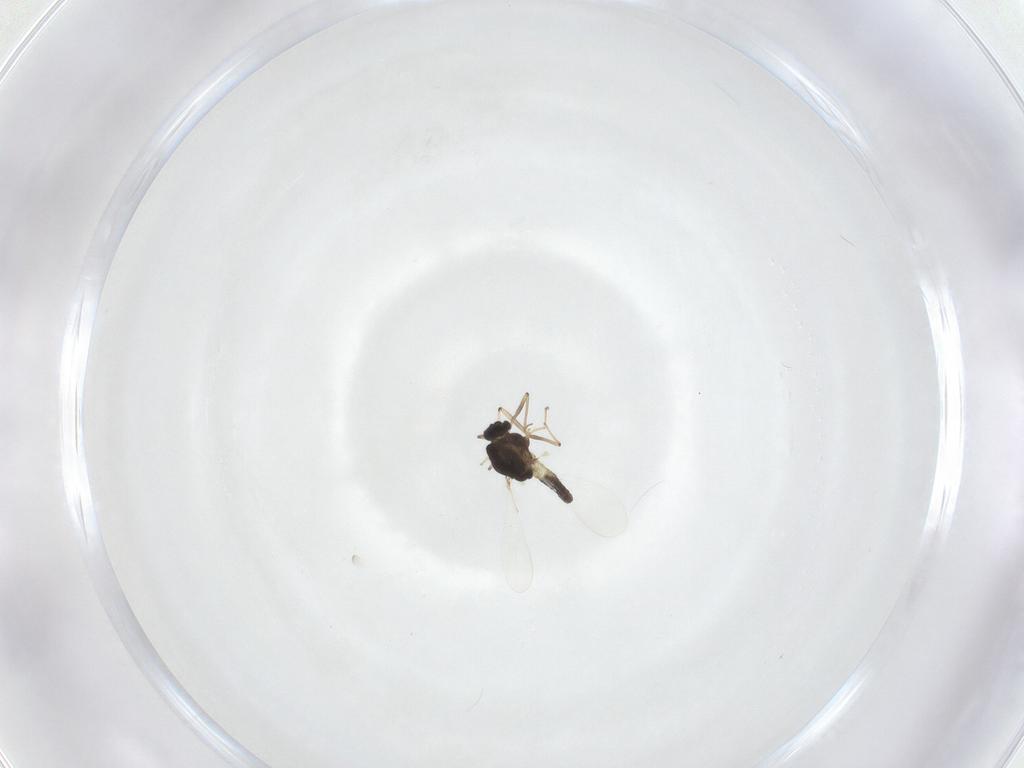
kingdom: Animalia
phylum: Arthropoda
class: Insecta
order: Diptera
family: Chironomidae
